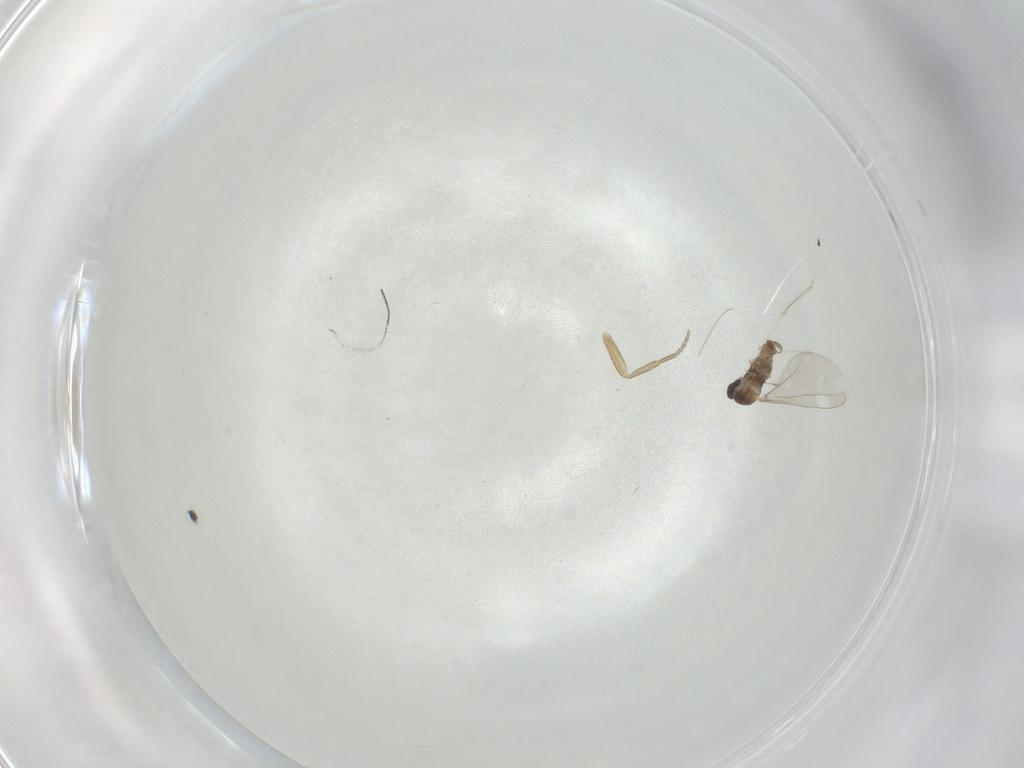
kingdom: Animalia
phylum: Arthropoda
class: Insecta
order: Diptera
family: Phoridae
